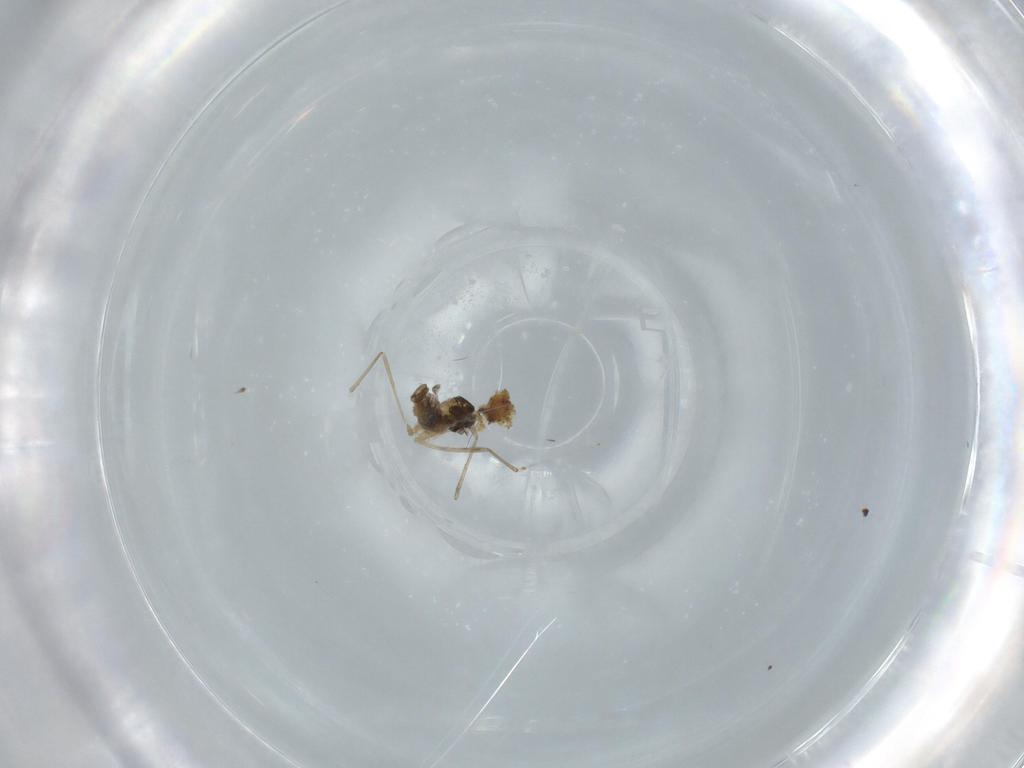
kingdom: Animalia
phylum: Arthropoda
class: Insecta
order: Diptera
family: Cecidomyiidae
